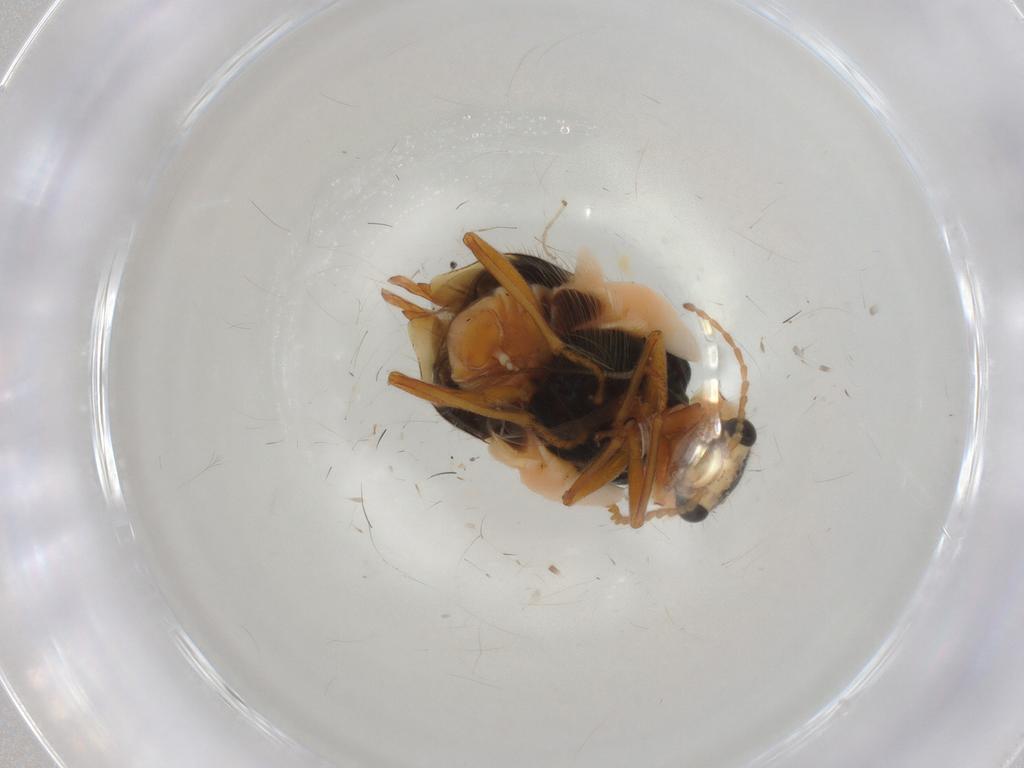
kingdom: Animalia
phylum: Arthropoda
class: Insecta
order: Coleoptera
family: Melyridae
